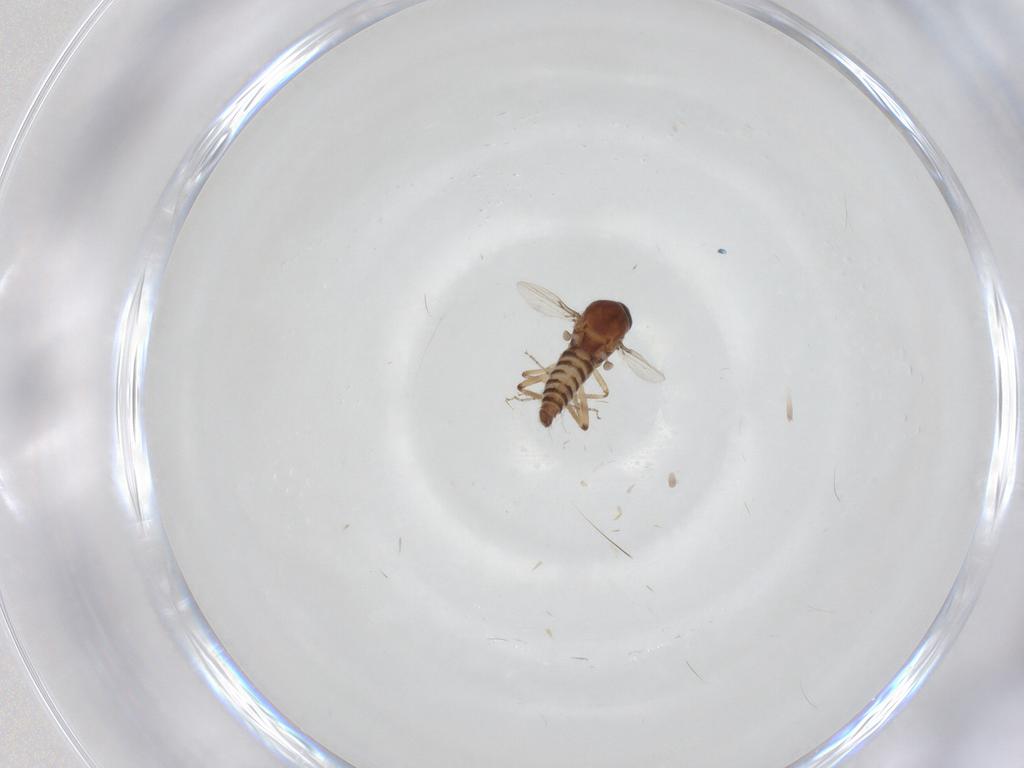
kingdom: Animalia
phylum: Arthropoda
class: Insecta
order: Diptera
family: Ceratopogonidae
